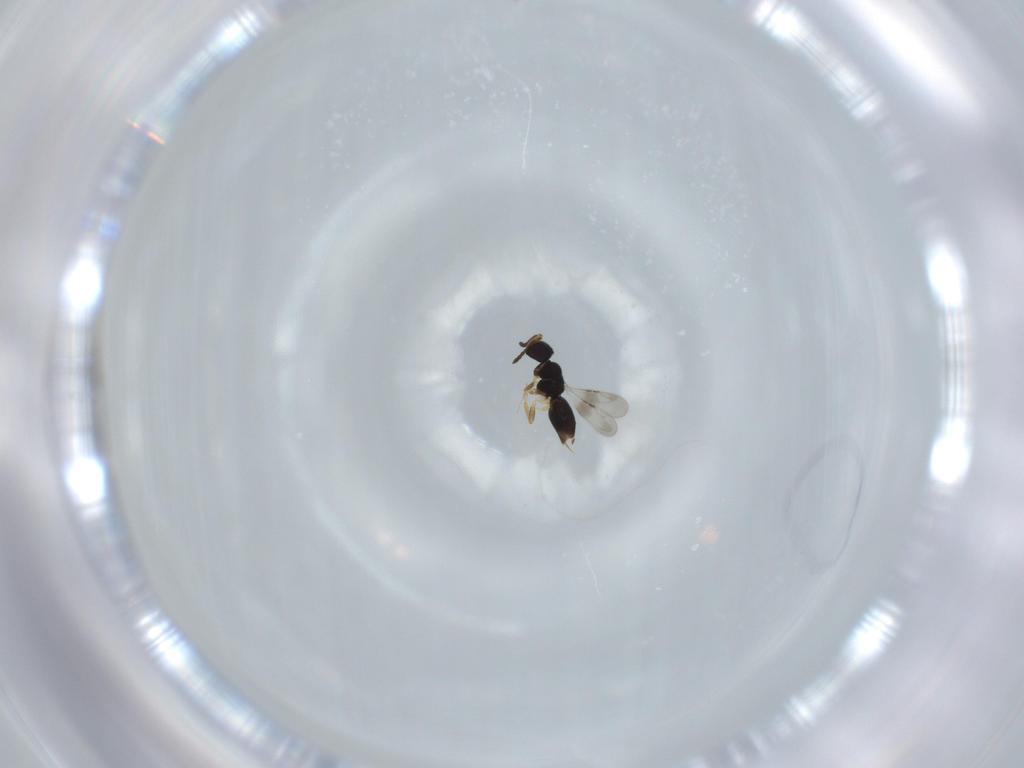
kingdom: Animalia
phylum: Arthropoda
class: Insecta
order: Hymenoptera
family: Formicidae
